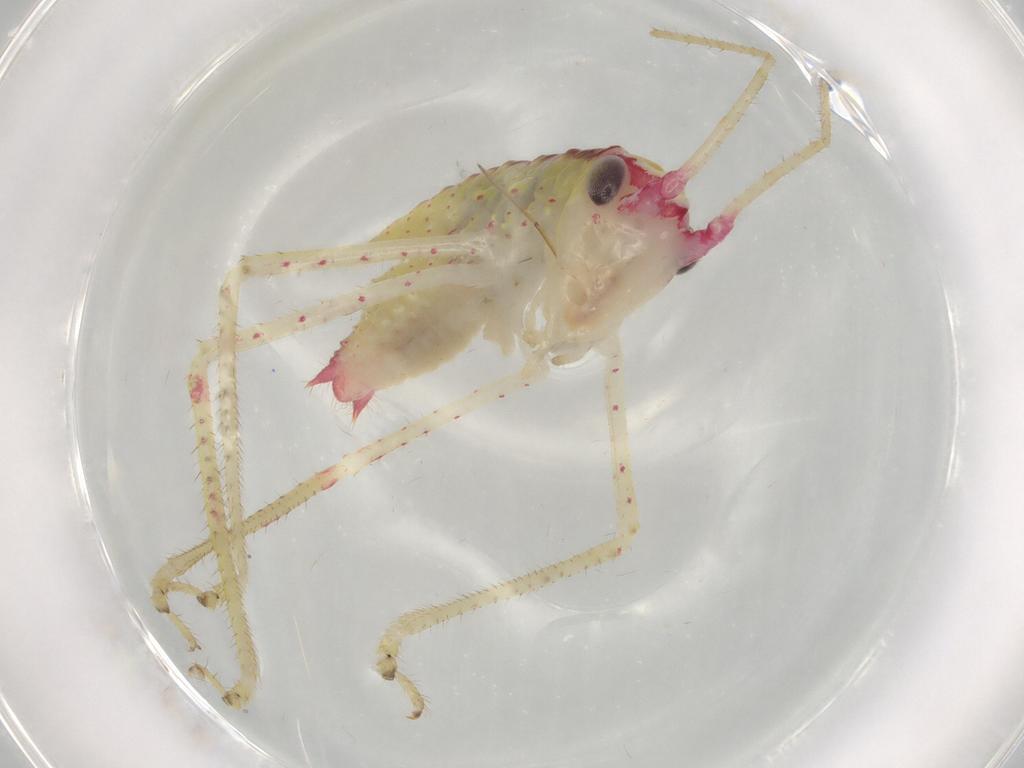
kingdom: Animalia
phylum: Arthropoda
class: Insecta
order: Orthoptera
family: Tettigoniidae
